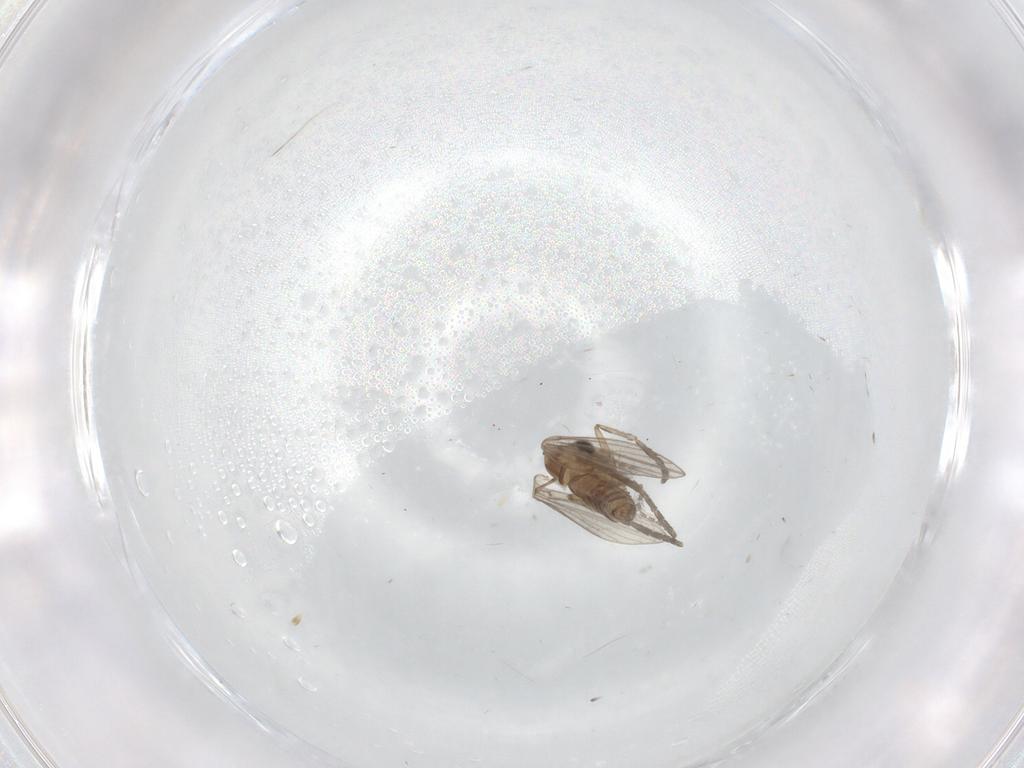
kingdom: Animalia
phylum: Arthropoda
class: Insecta
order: Diptera
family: Psychodidae
